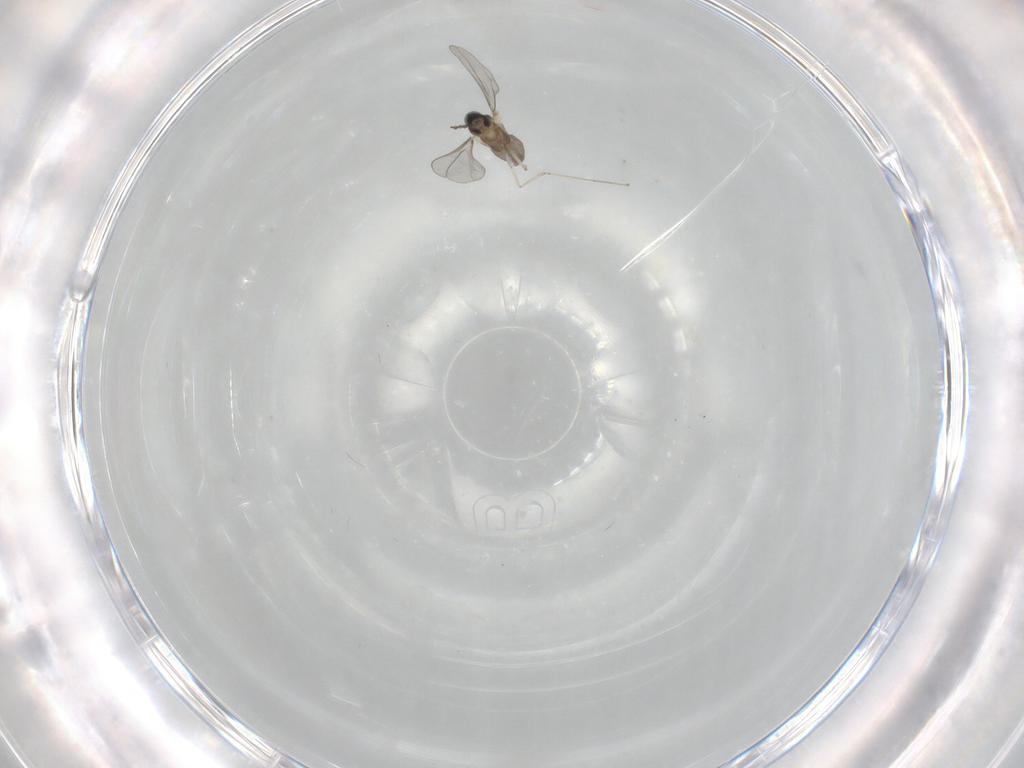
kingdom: Animalia
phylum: Arthropoda
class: Insecta
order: Diptera
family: Cecidomyiidae
